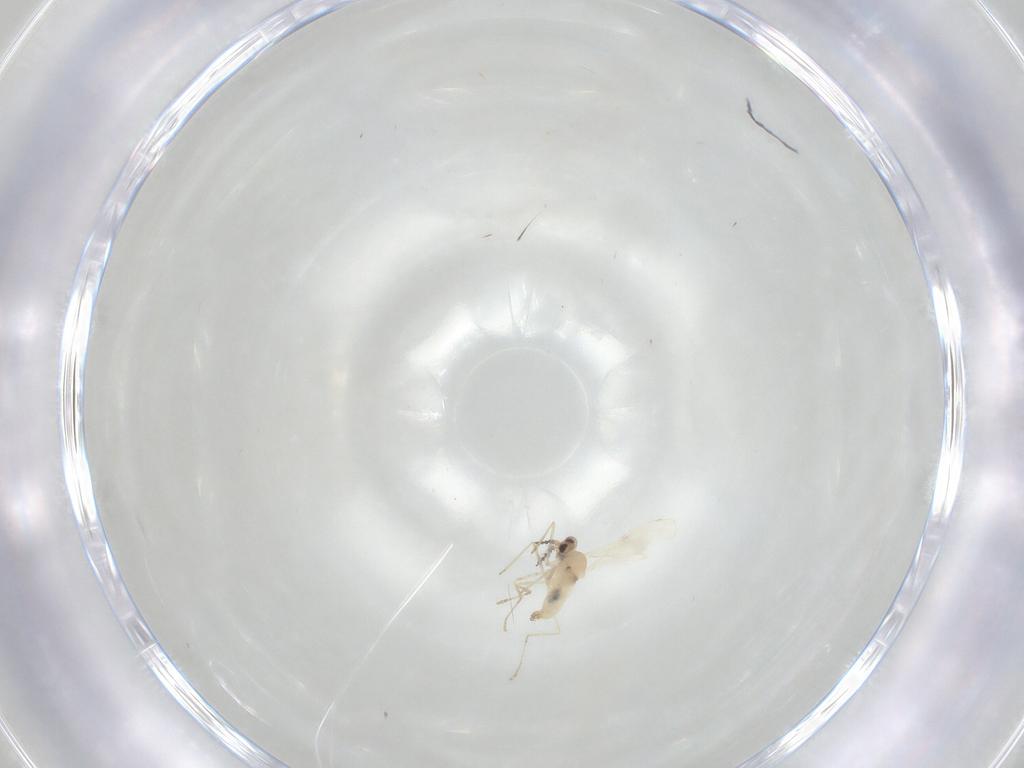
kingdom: Animalia
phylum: Arthropoda
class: Insecta
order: Diptera
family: Cecidomyiidae
